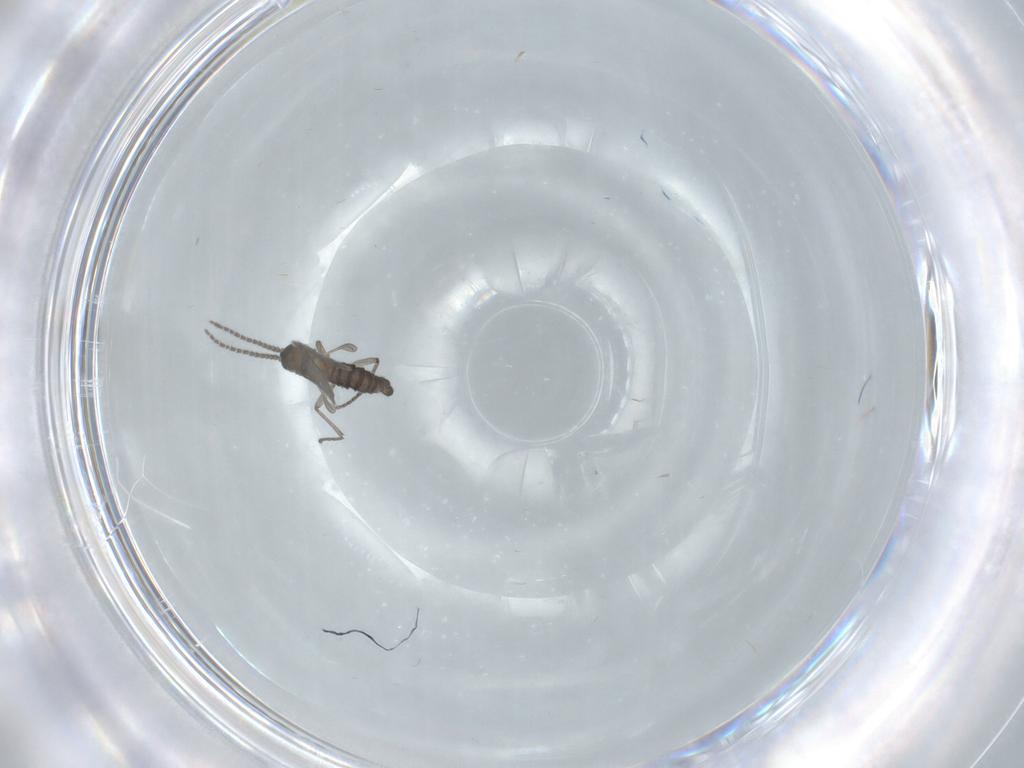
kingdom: Animalia
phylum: Arthropoda
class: Insecta
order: Diptera
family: Sciaridae
